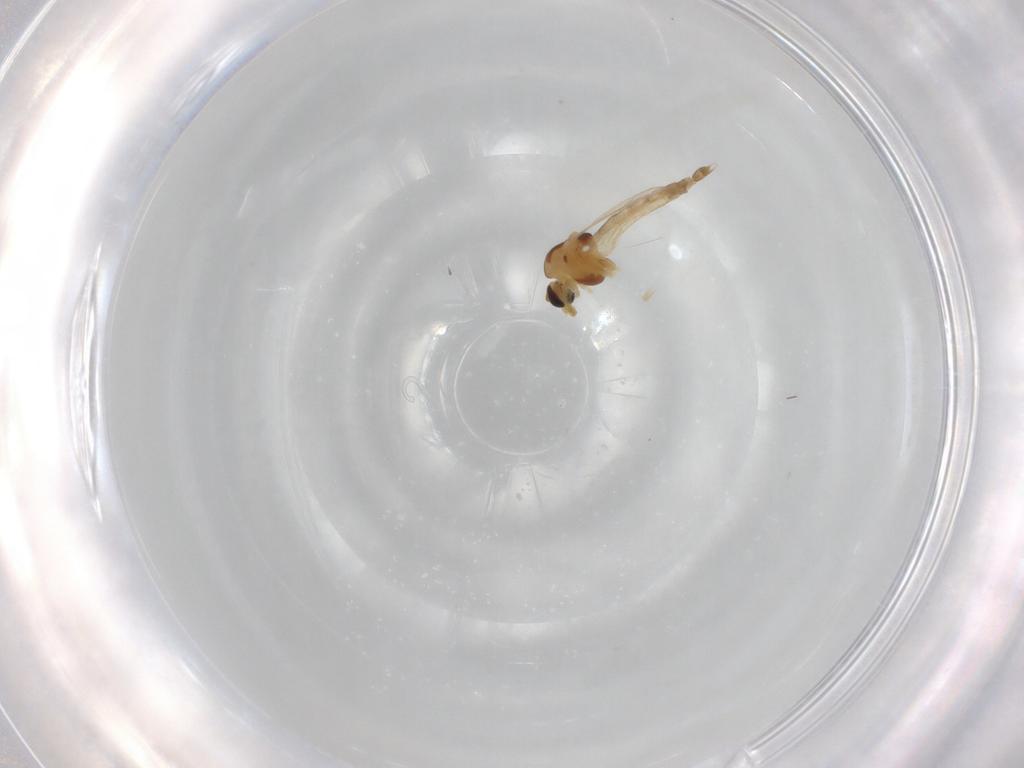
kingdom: Animalia
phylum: Arthropoda
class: Insecta
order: Diptera
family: Chironomidae
